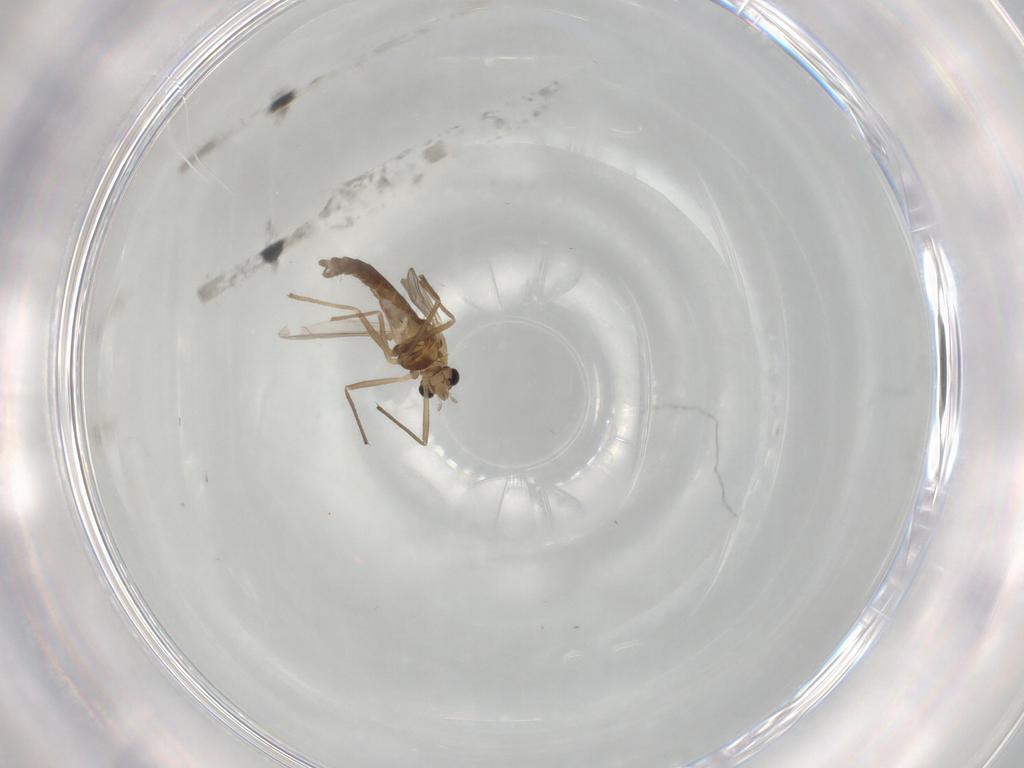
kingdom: Animalia
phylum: Arthropoda
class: Insecta
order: Diptera
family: Chironomidae
